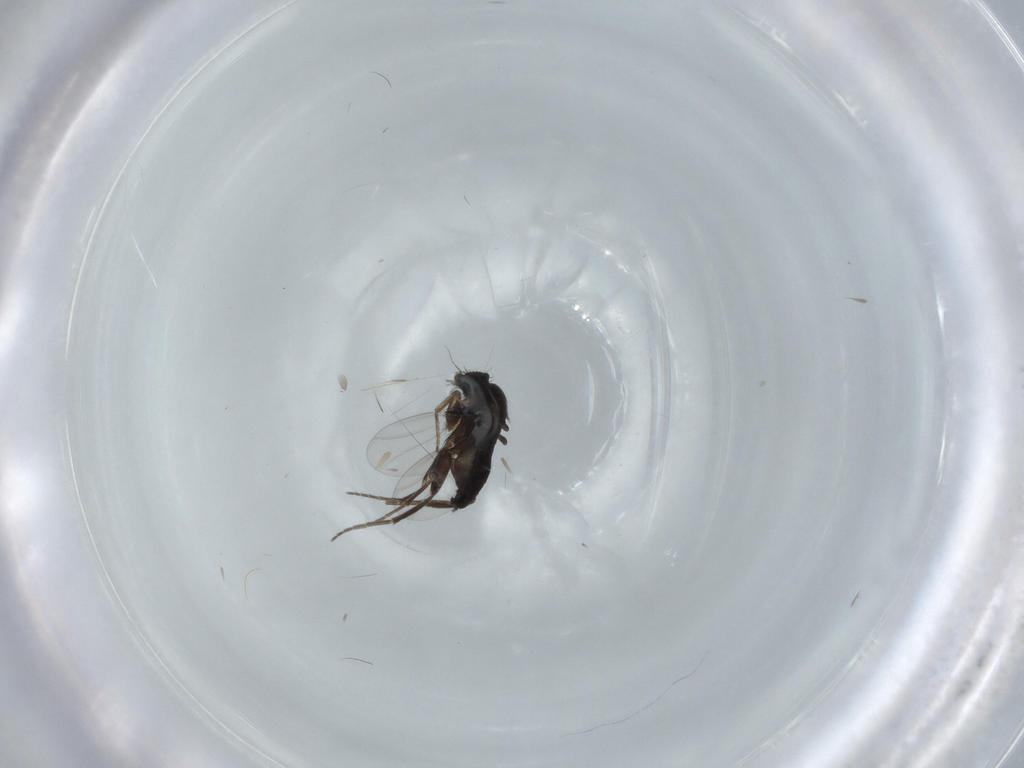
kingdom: Animalia
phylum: Arthropoda
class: Insecta
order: Diptera
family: Phoridae
